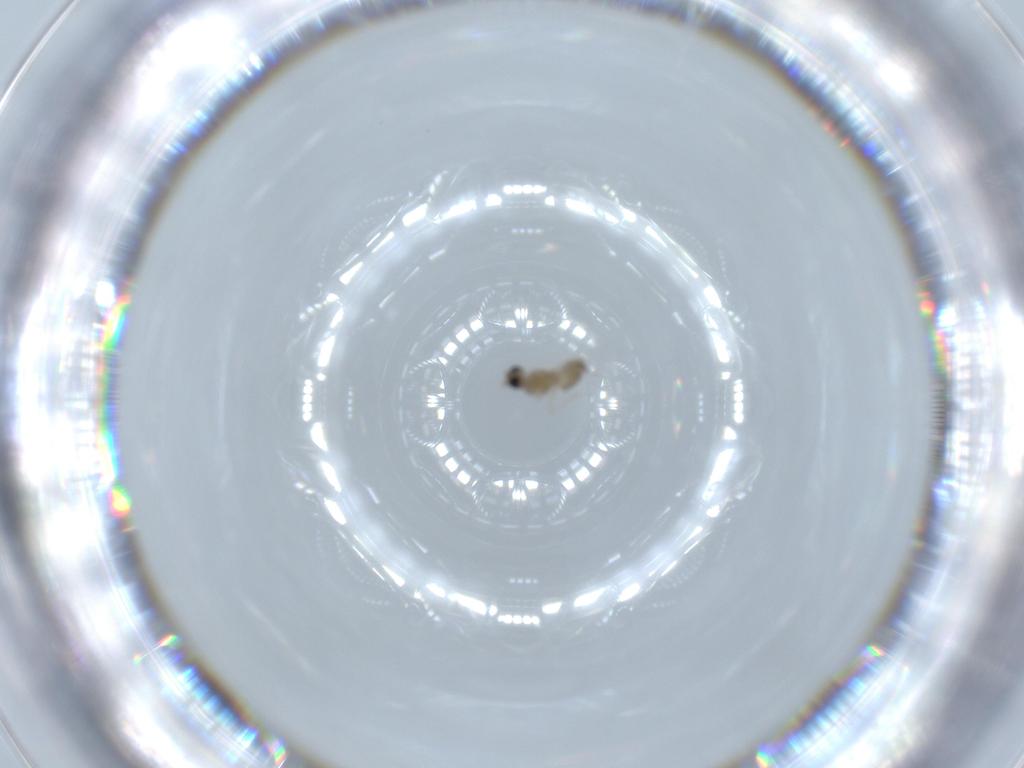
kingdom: Animalia
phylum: Arthropoda
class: Insecta
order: Diptera
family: Cecidomyiidae
